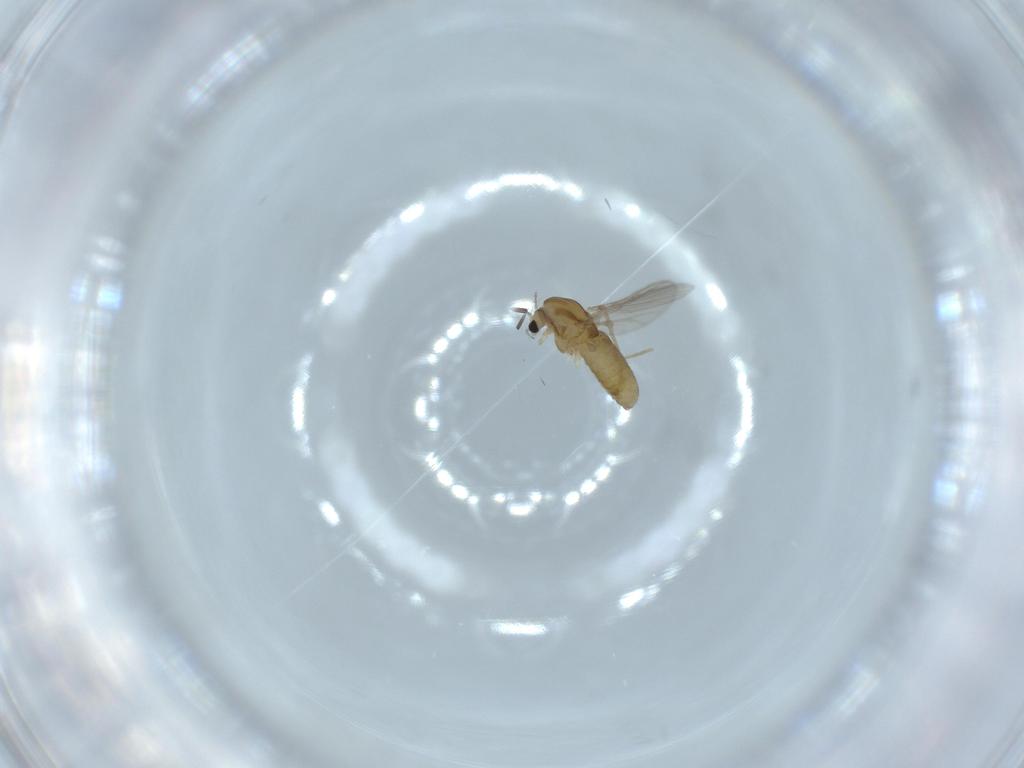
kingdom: Animalia
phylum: Arthropoda
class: Insecta
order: Diptera
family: Chironomidae
